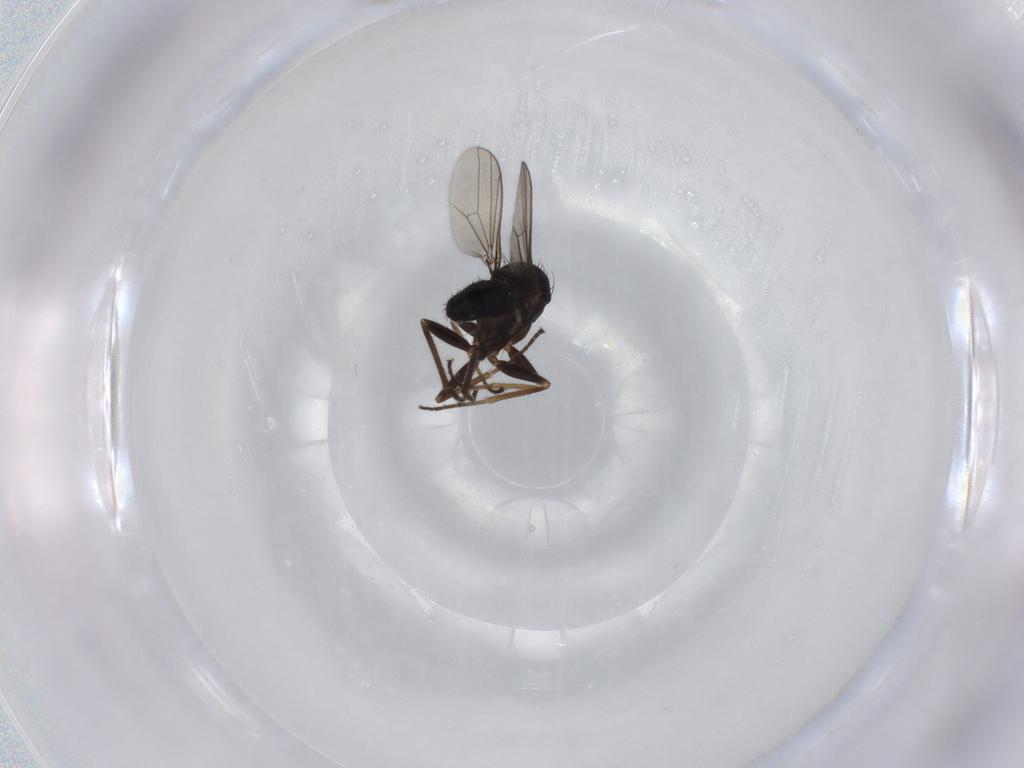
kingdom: Animalia
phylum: Arthropoda
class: Insecta
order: Diptera
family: Dolichopodidae
